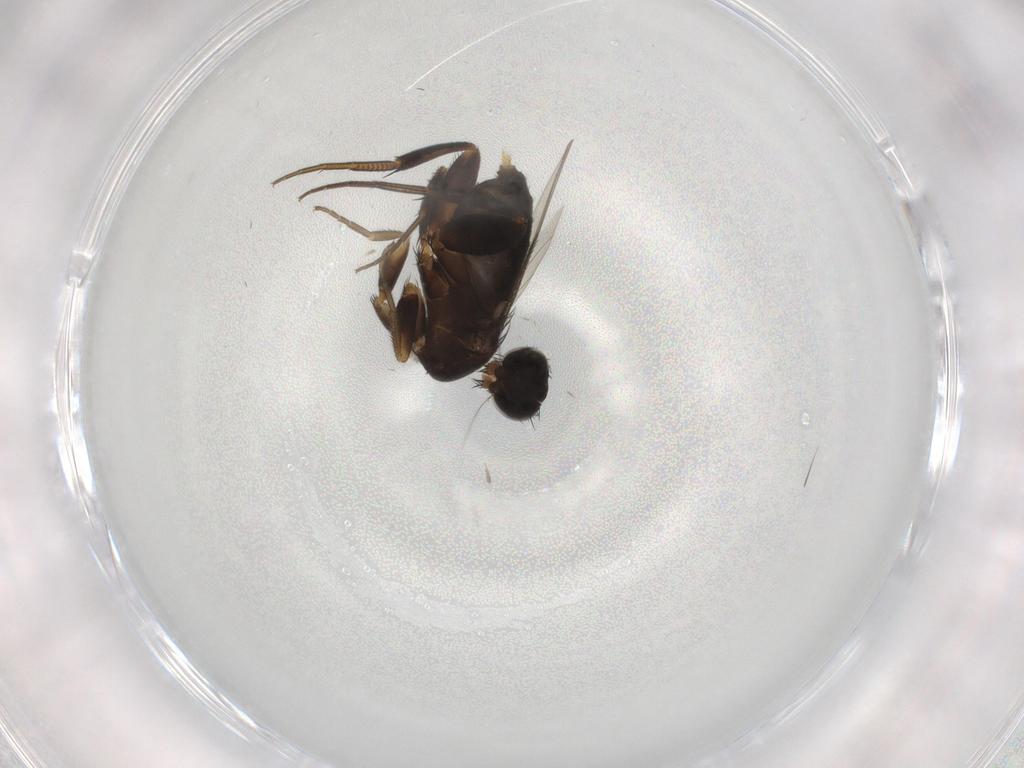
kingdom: Animalia
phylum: Arthropoda
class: Insecta
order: Diptera
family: Phoridae
